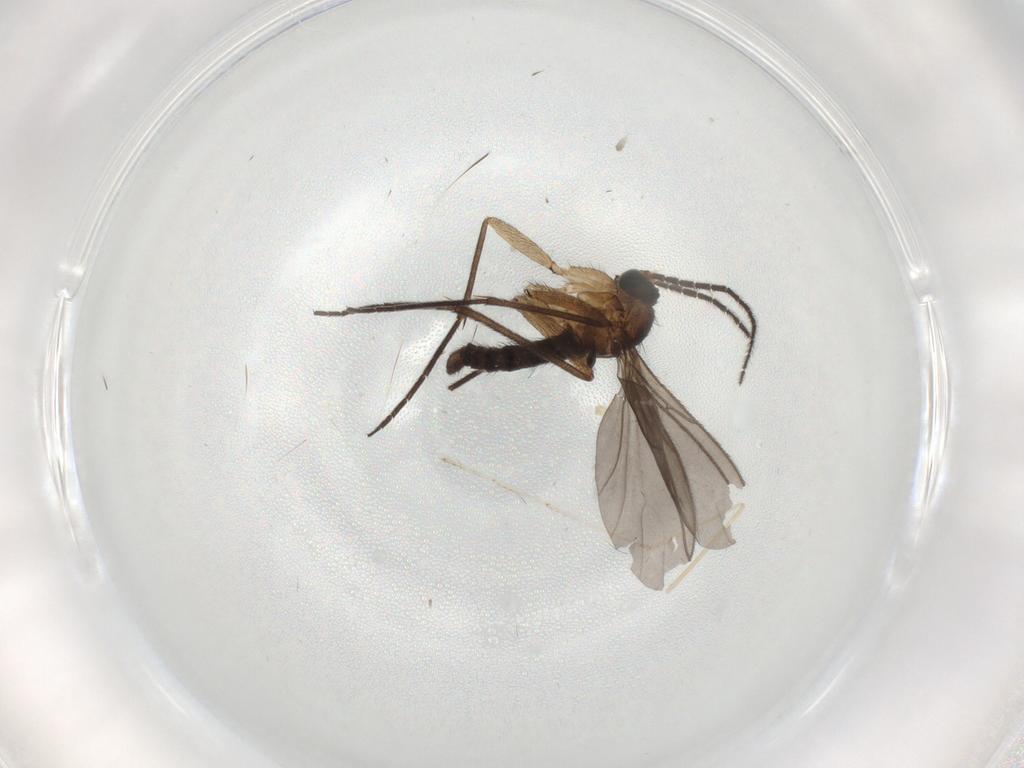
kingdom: Animalia
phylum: Arthropoda
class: Insecta
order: Diptera
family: Sciaridae
